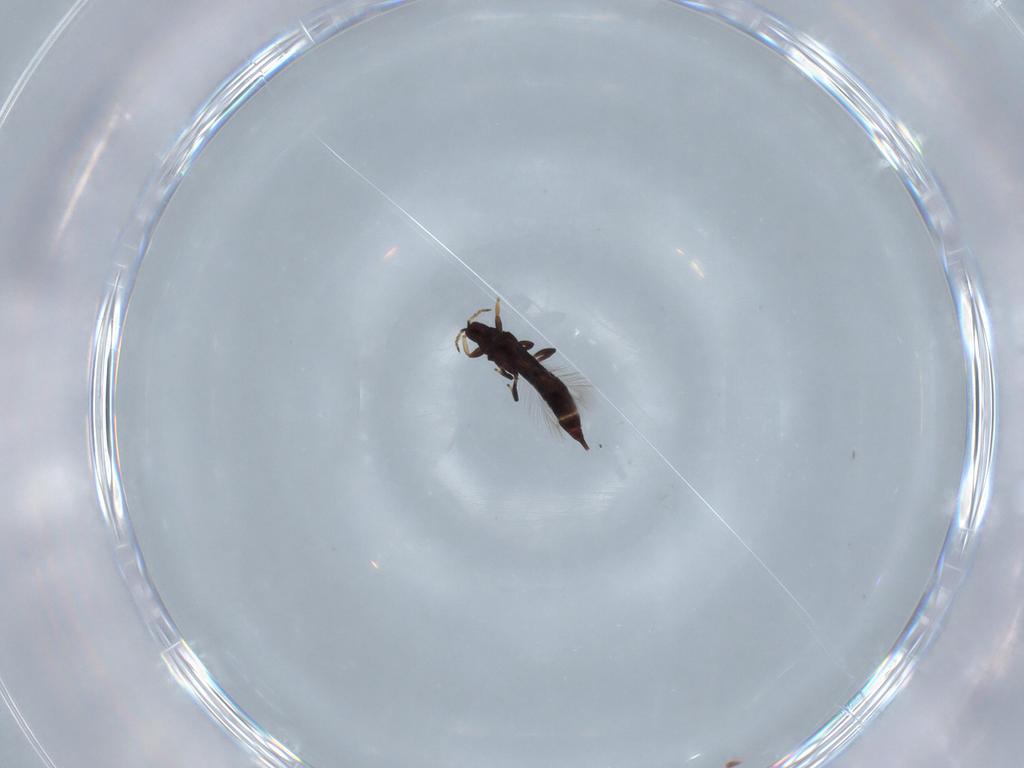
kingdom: Animalia
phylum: Arthropoda
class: Insecta
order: Thysanoptera
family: Phlaeothripidae
